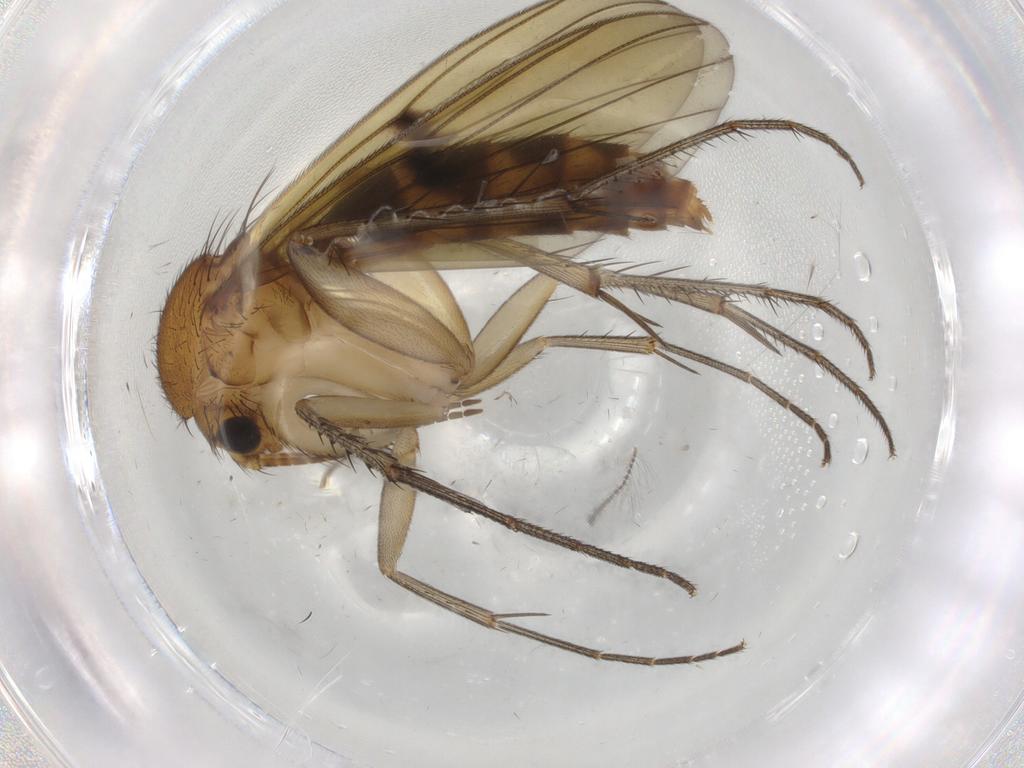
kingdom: Animalia
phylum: Arthropoda
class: Insecta
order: Diptera
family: Mycetophilidae
